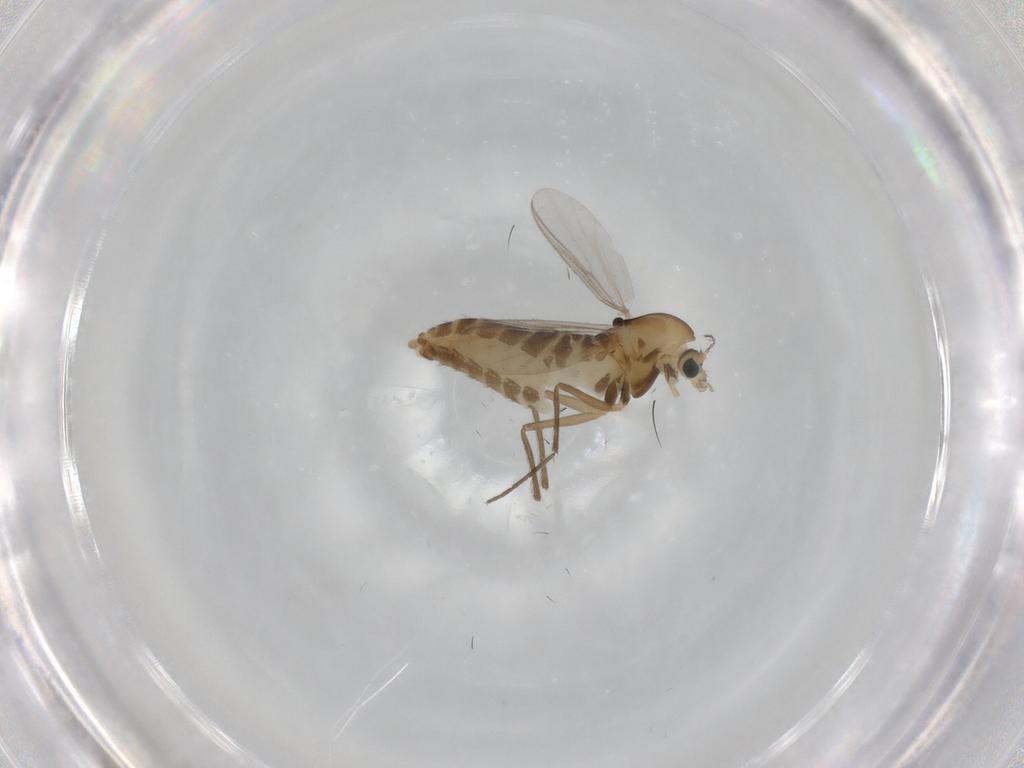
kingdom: Animalia
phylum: Arthropoda
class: Insecta
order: Diptera
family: Chironomidae
